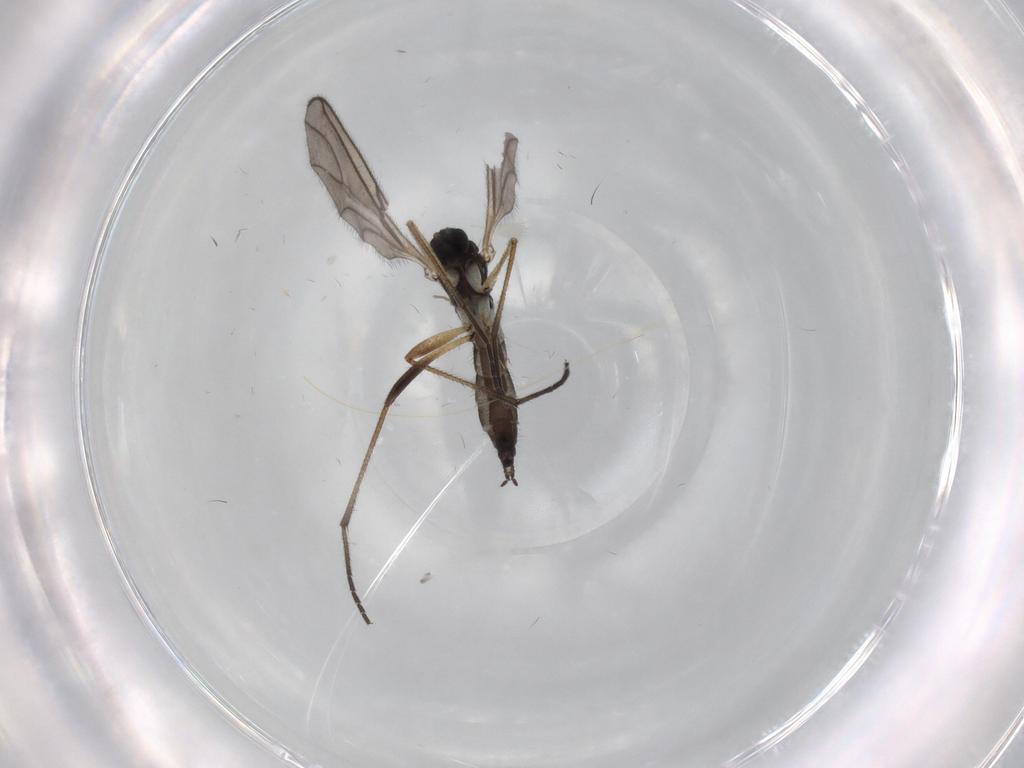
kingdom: Animalia
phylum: Arthropoda
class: Insecta
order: Diptera
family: Sciaridae
